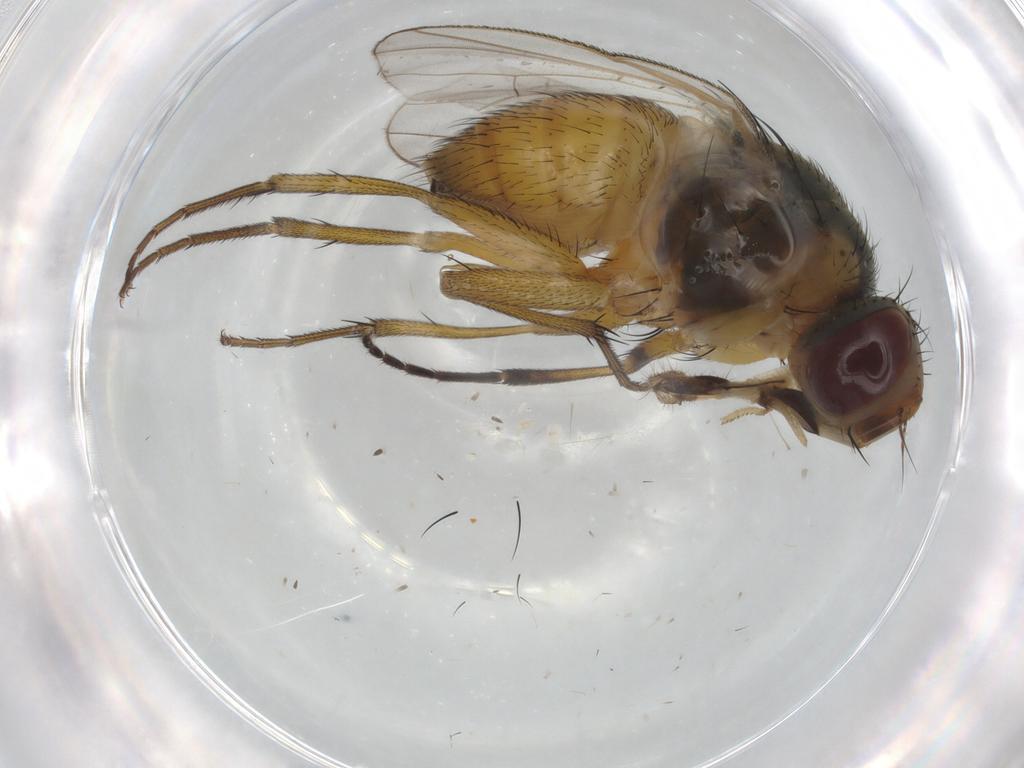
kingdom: Animalia
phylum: Arthropoda
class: Insecta
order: Diptera
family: Muscidae
